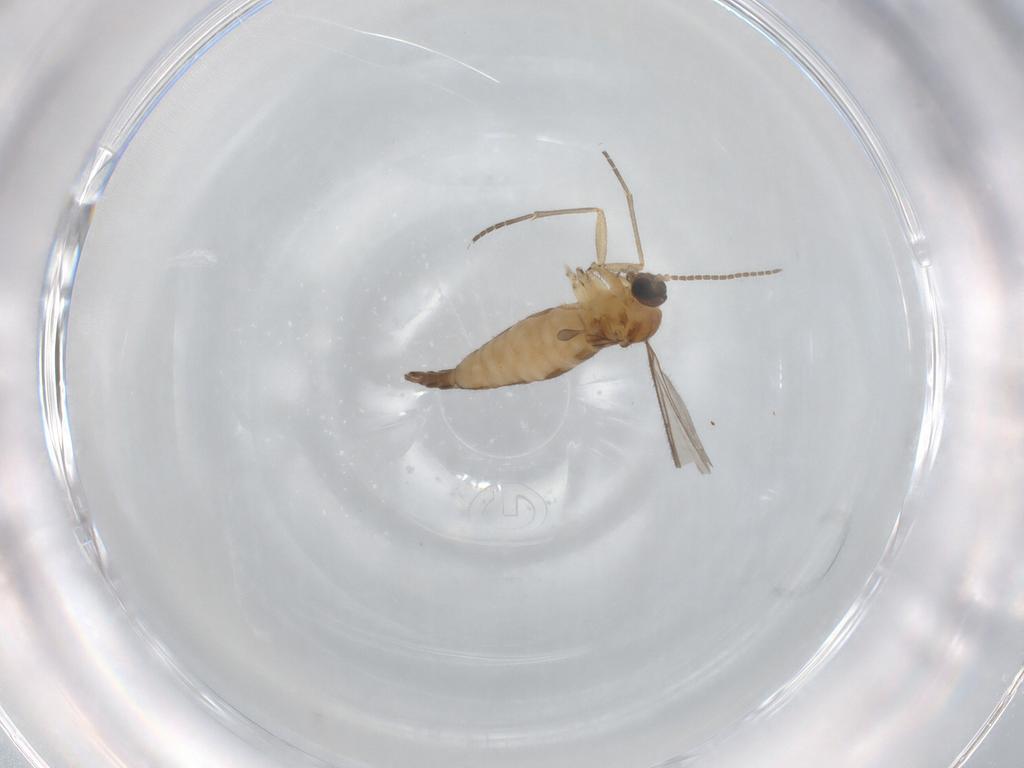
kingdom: Animalia
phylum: Arthropoda
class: Insecta
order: Diptera
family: Sciaridae
